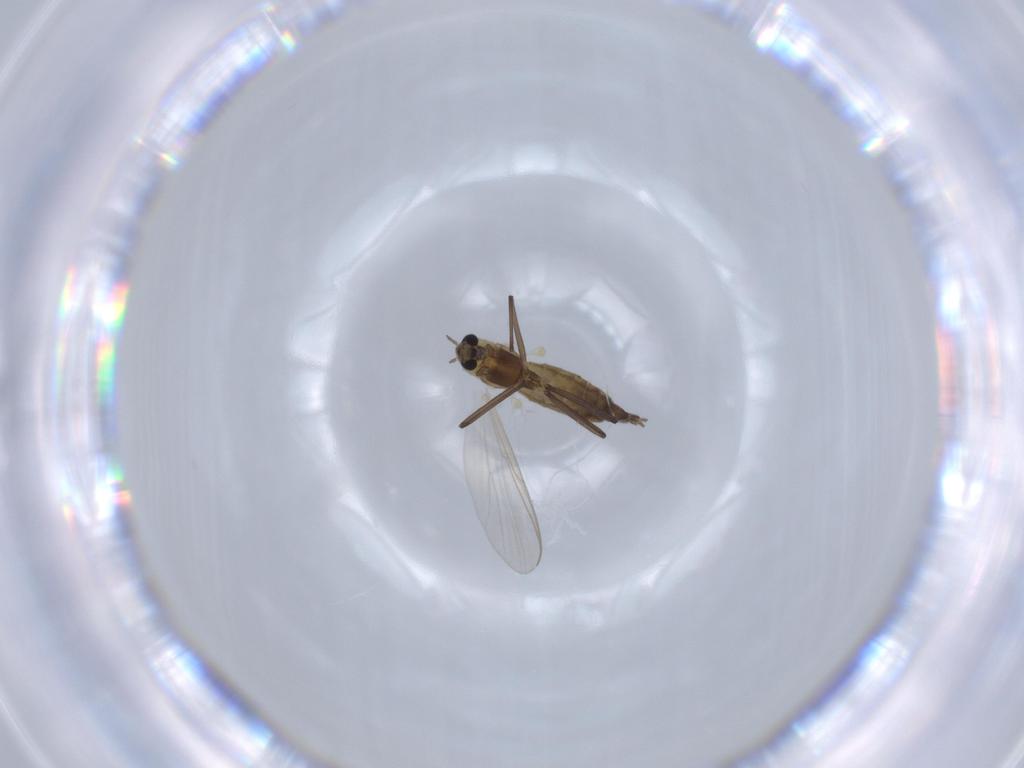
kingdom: Animalia
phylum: Arthropoda
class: Insecta
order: Diptera
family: Chironomidae
